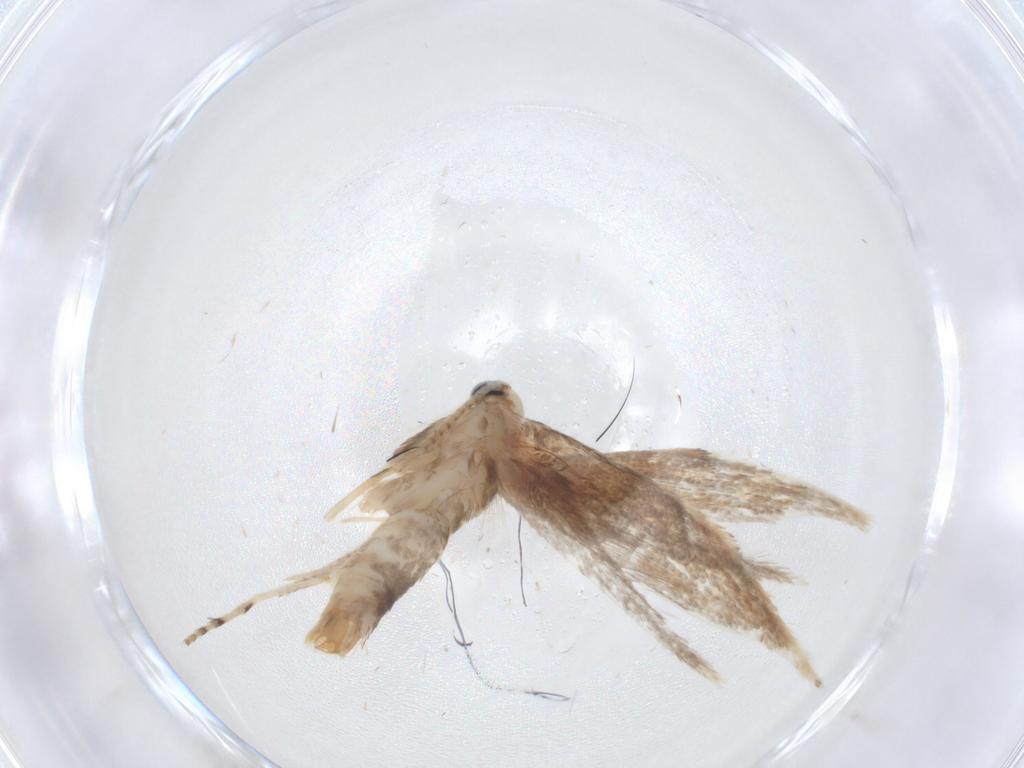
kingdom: Animalia
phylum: Arthropoda
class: Insecta
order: Lepidoptera
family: Gracillariidae
